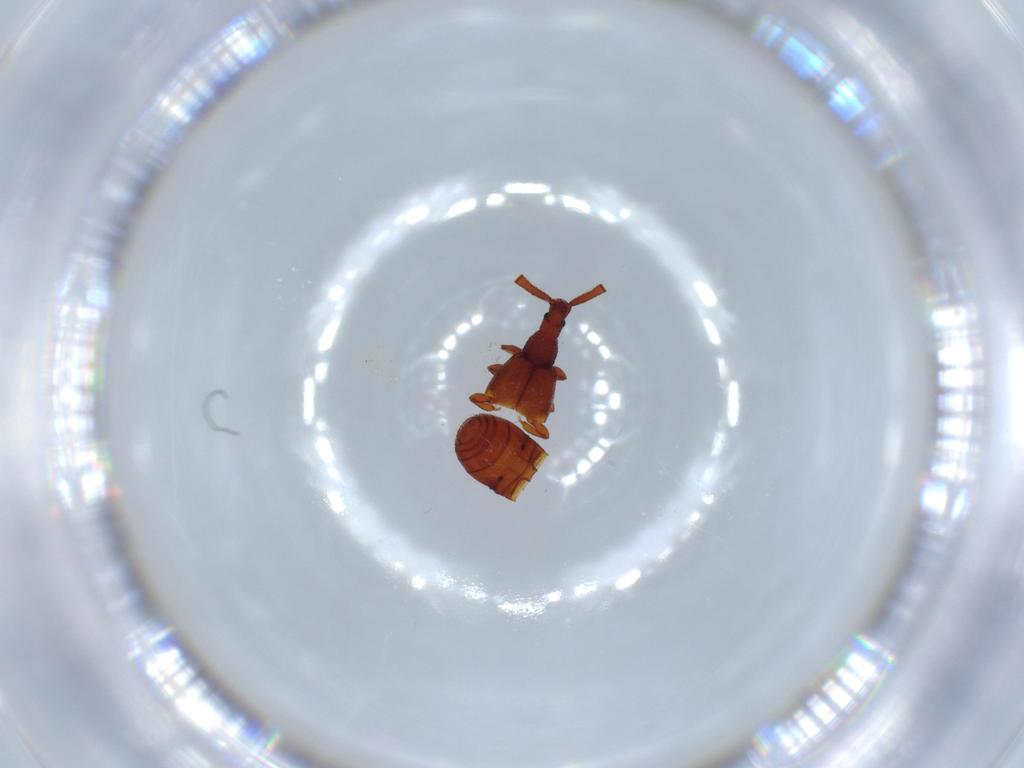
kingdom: Animalia
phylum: Arthropoda
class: Insecta
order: Coleoptera
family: Staphylinidae
